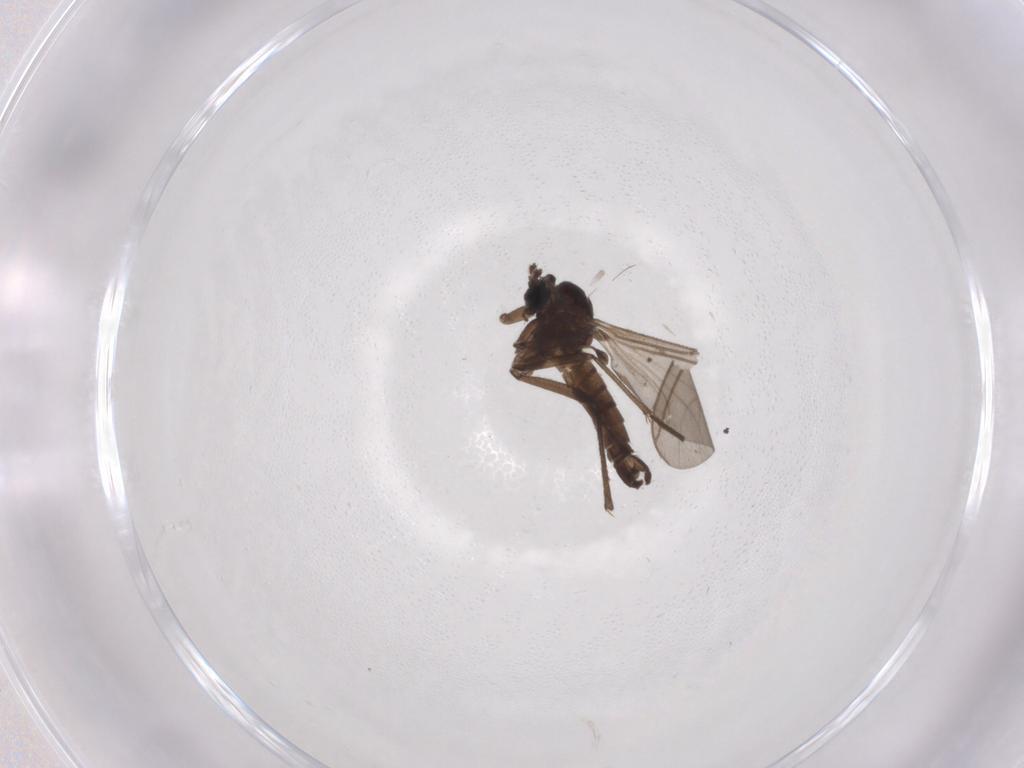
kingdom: Animalia
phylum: Arthropoda
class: Insecta
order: Diptera
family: Sciaridae
